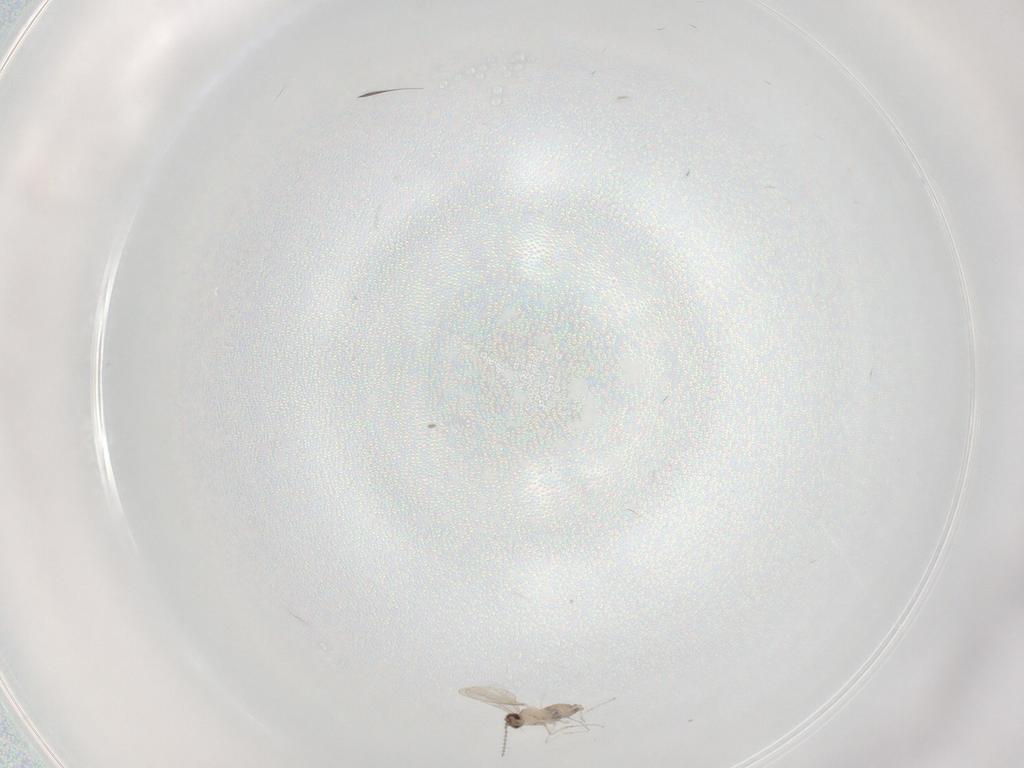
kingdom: Animalia
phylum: Arthropoda
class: Insecta
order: Diptera
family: Cecidomyiidae
